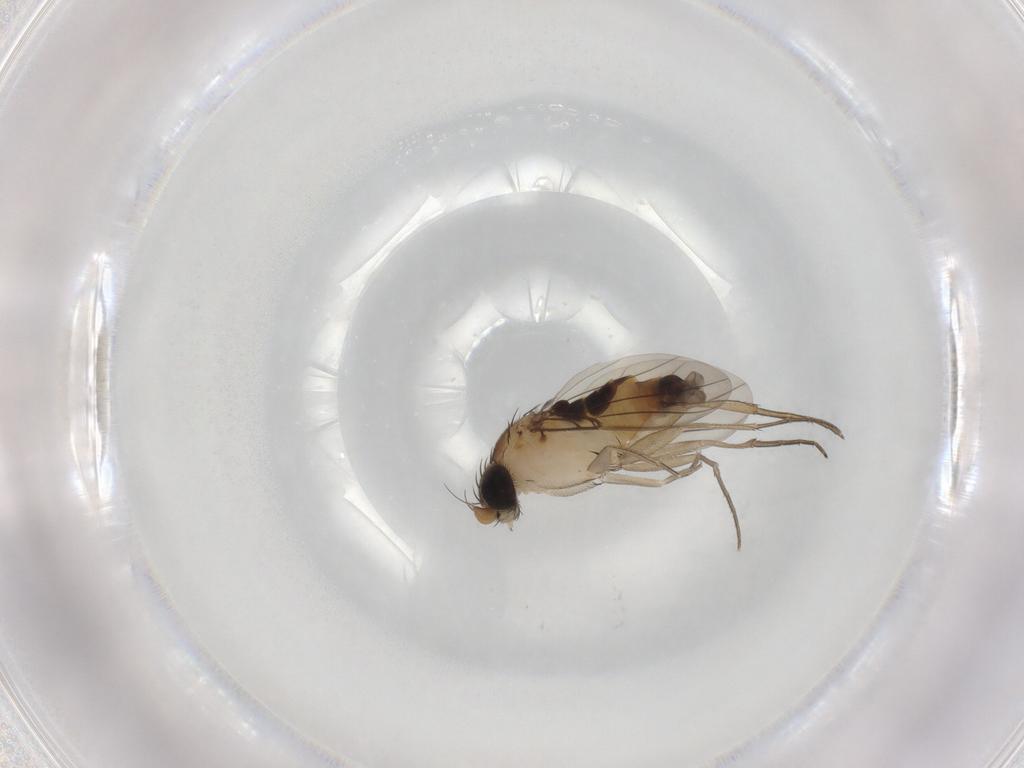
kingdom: Animalia
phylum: Arthropoda
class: Insecta
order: Diptera
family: Phoridae
